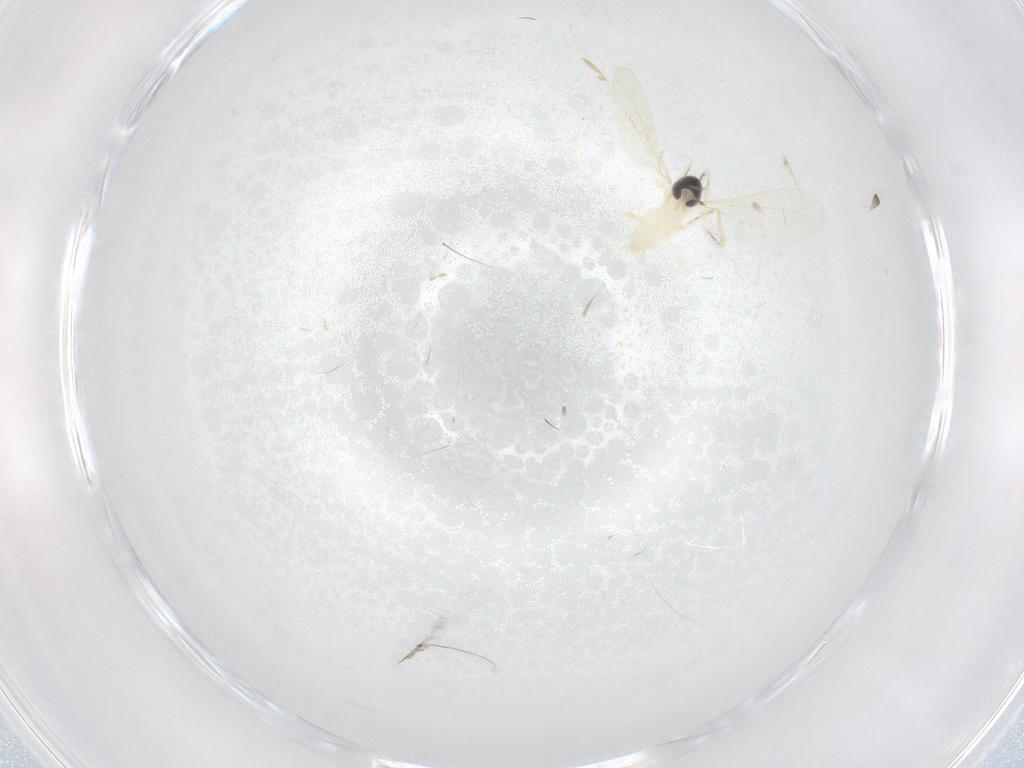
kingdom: Animalia
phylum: Arthropoda
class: Insecta
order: Diptera
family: Cecidomyiidae
